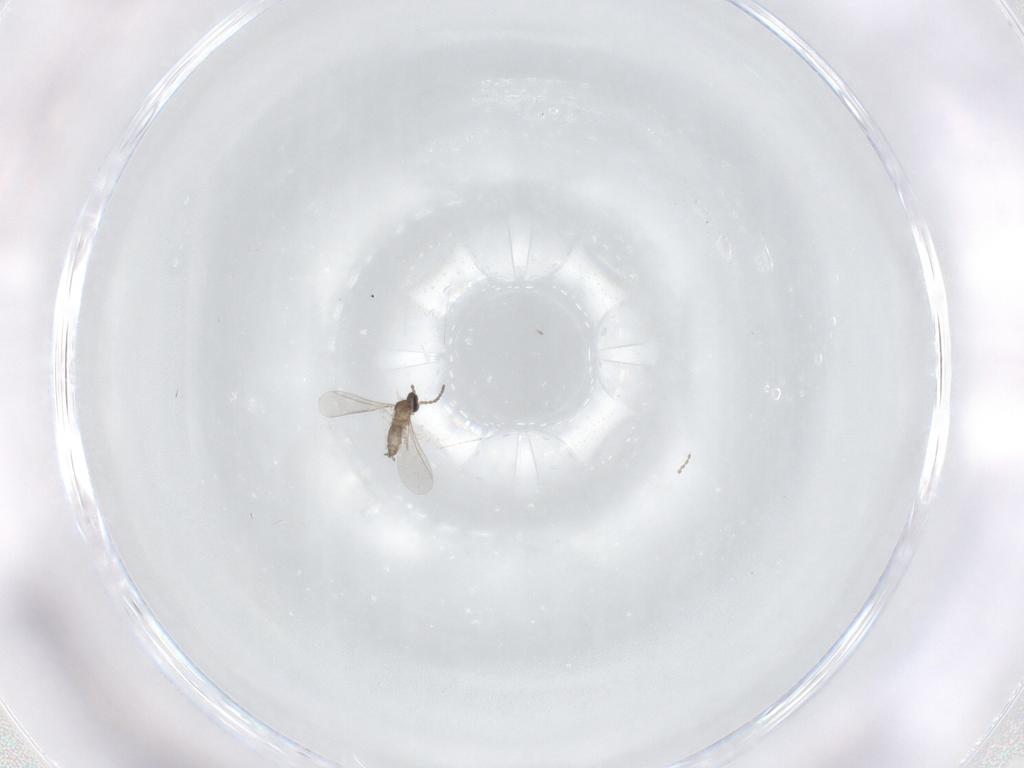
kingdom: Animalia
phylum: Arthropoda
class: Insecta
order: Diptera
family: Cecidomyiidae
